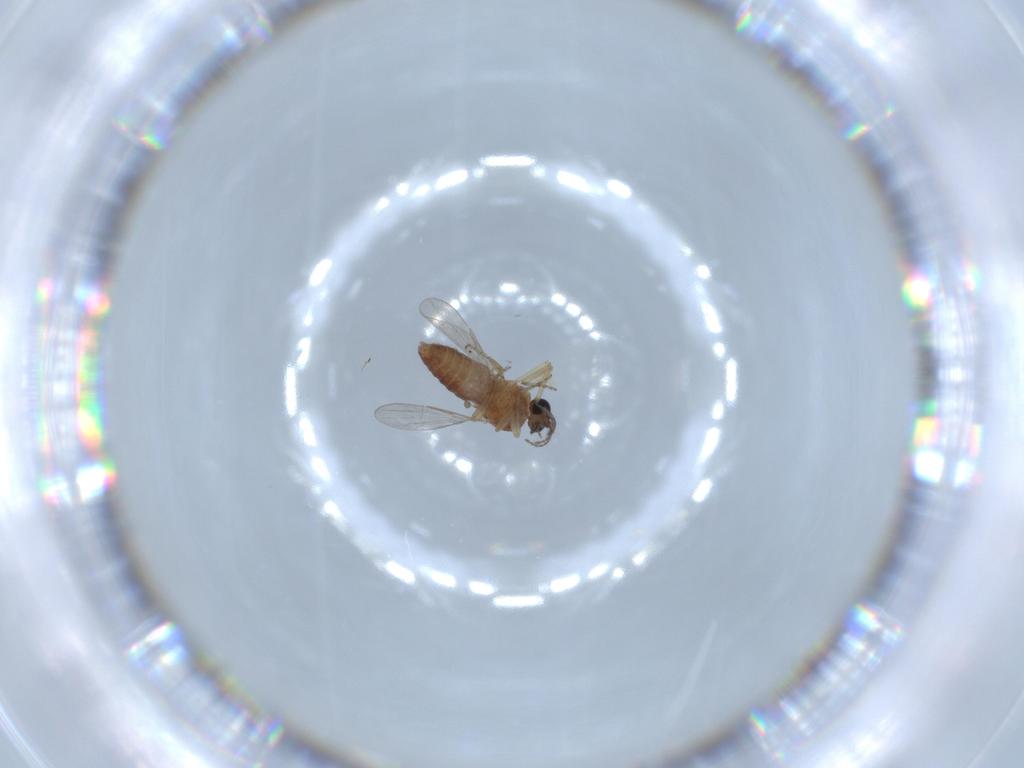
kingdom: Animalia
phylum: Arthropoda
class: Insecta
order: Diptera
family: Ceratopogonidae
